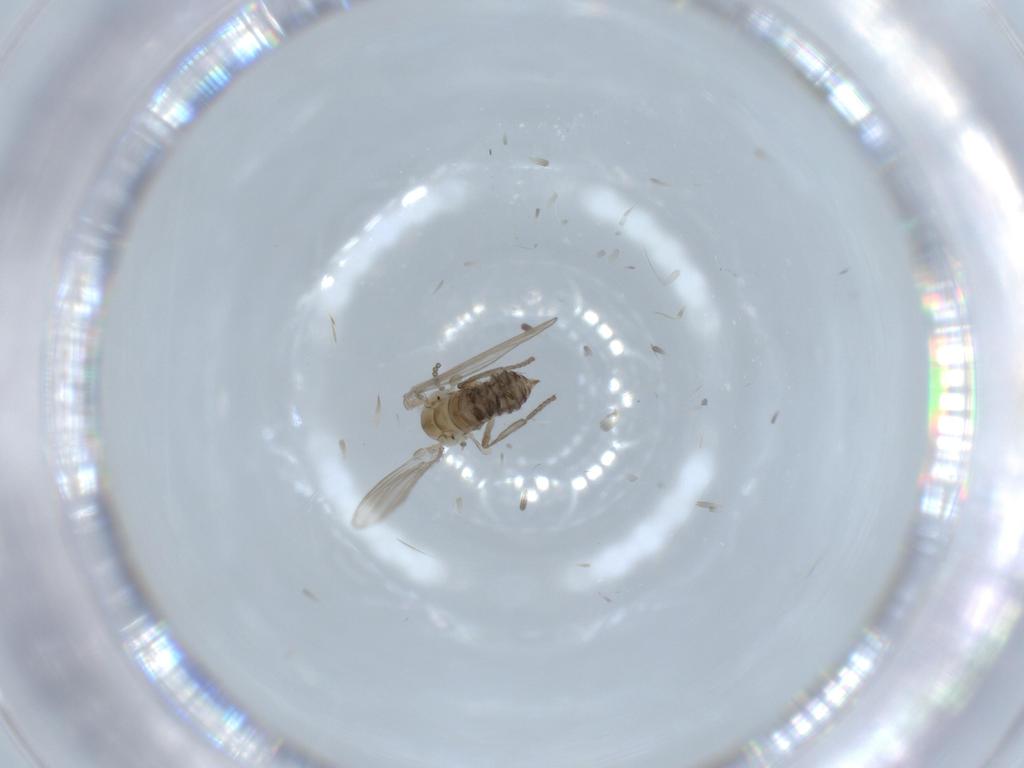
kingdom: Animalia
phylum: Arthropoda
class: Insecta
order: Diptera
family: Psychodidae
